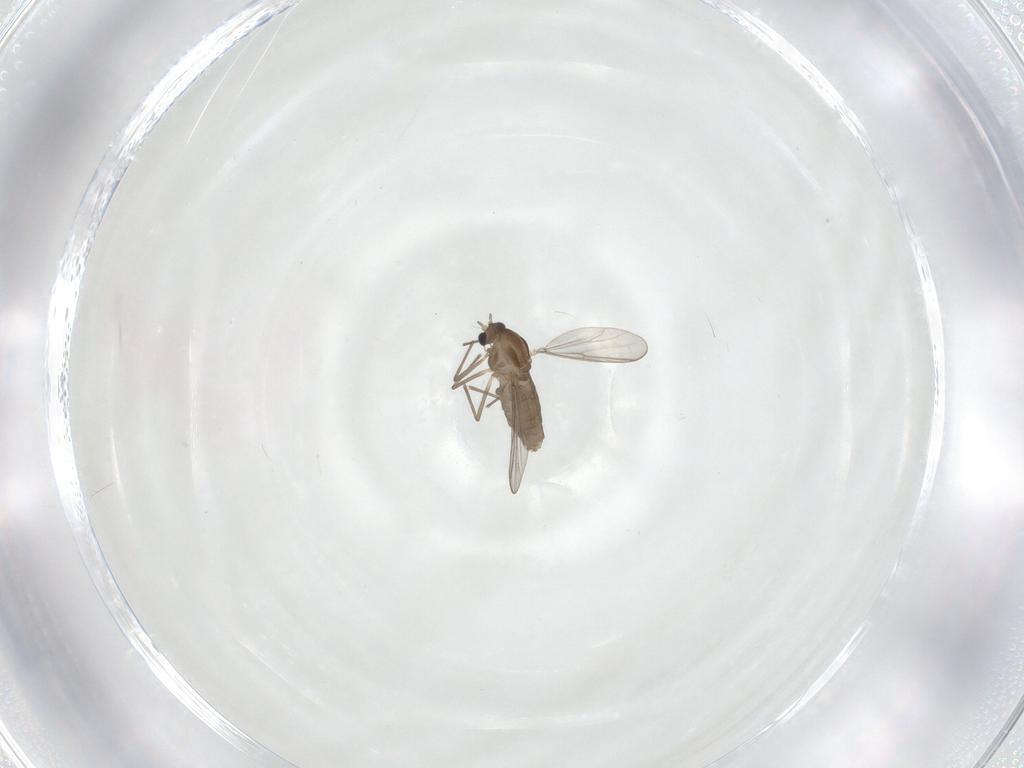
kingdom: Animalia
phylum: Arthropoda
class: Insecta
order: Diptera
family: Chironomidae
